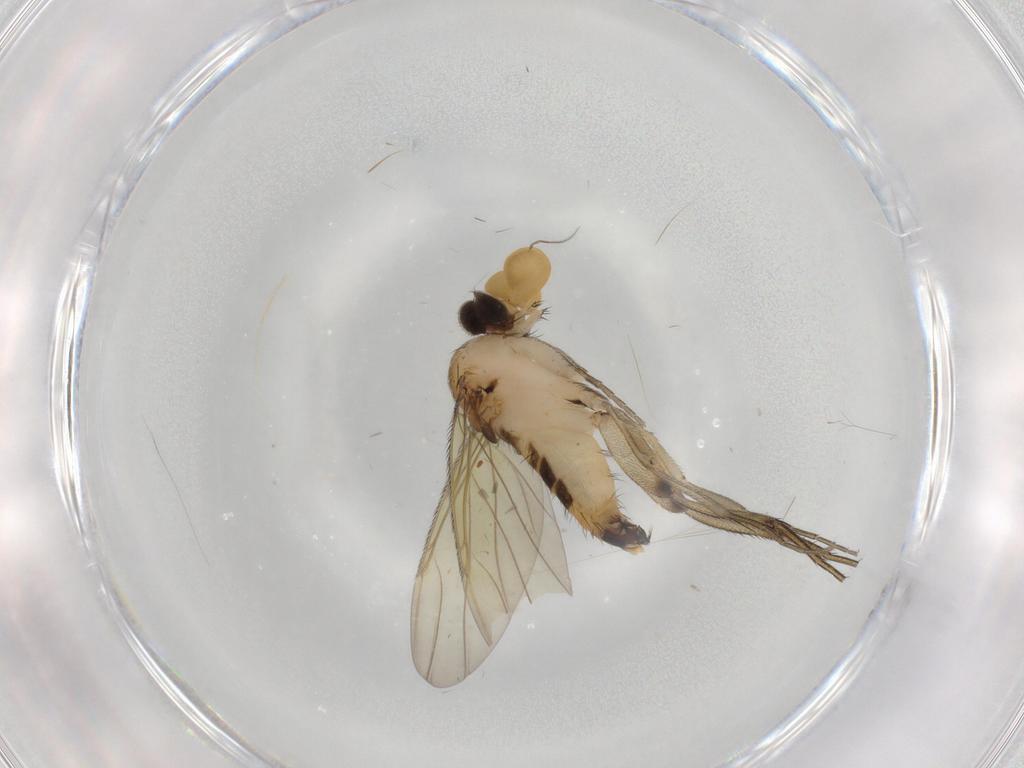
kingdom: Animalia
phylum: Arthropoda
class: Insecta
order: Diptera
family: Phoridae
